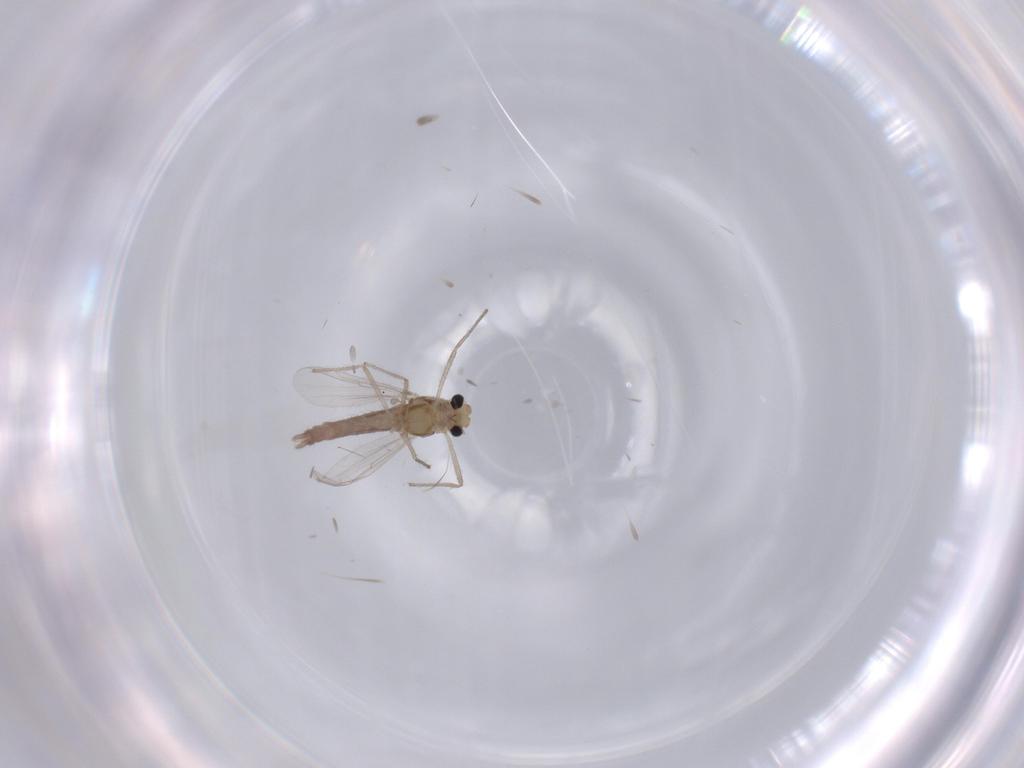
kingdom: Animalia
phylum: Arthropoda
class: Insecta
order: Diptera
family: Chironomidae
